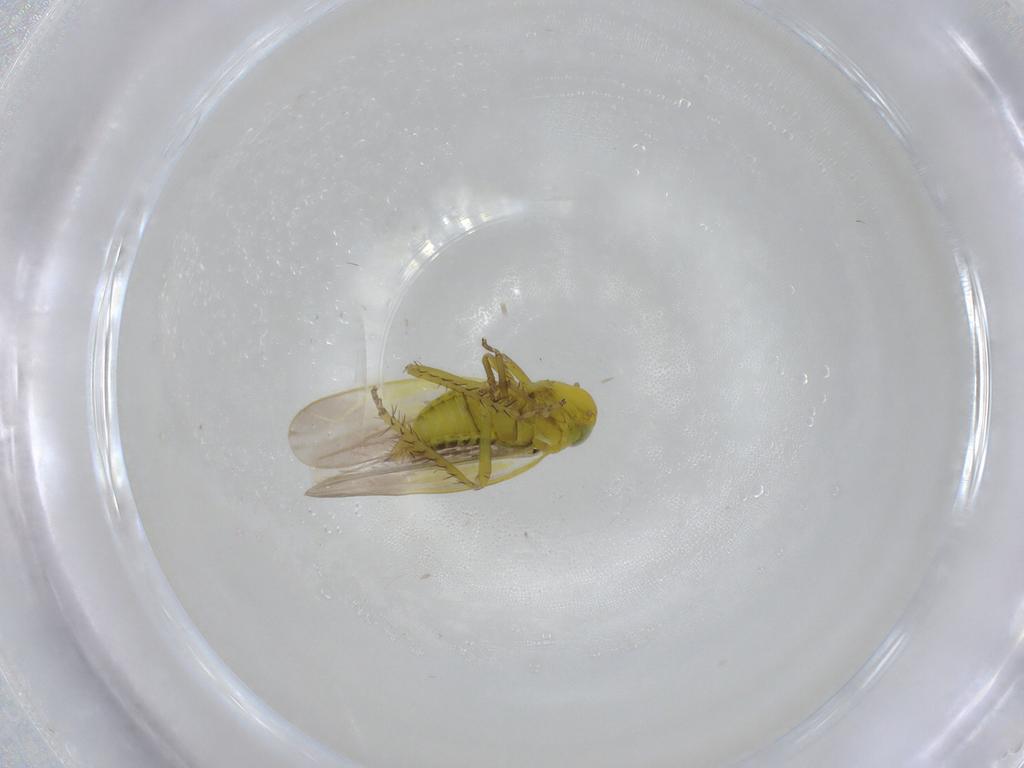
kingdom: Animalia
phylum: Arthropoda
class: Insecta
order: Hemiptera
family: Cicadellidae
